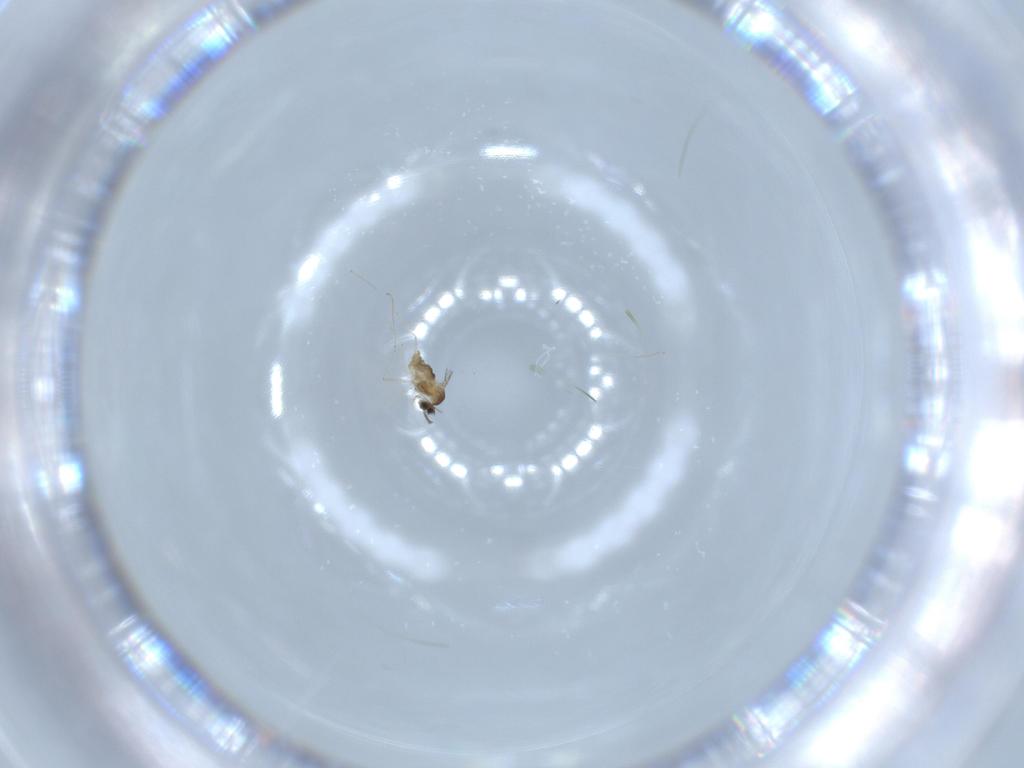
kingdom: Animalia
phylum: Arthropoda
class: Insecta
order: Diptera
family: Cecidomyiidae
